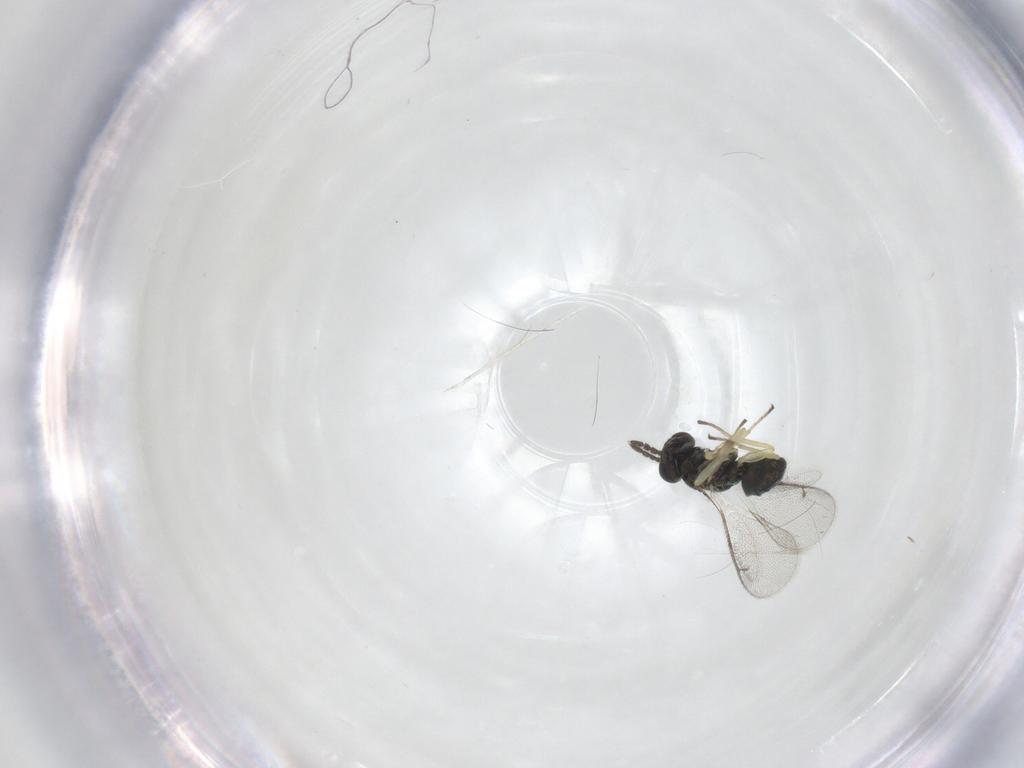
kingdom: Animalia
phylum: Arthropoda
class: Insecta
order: Hymenoptera
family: Eulophidae
